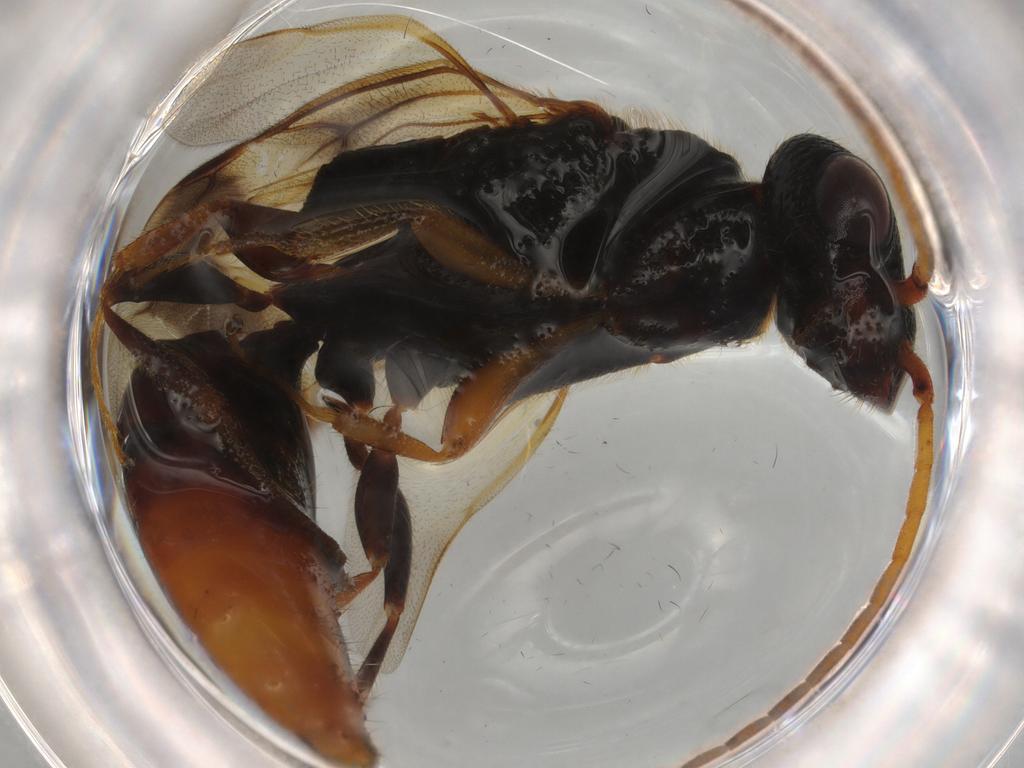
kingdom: Animalia
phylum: Arthropoda
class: Insecta
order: Hymenoptera
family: Bethylidae
